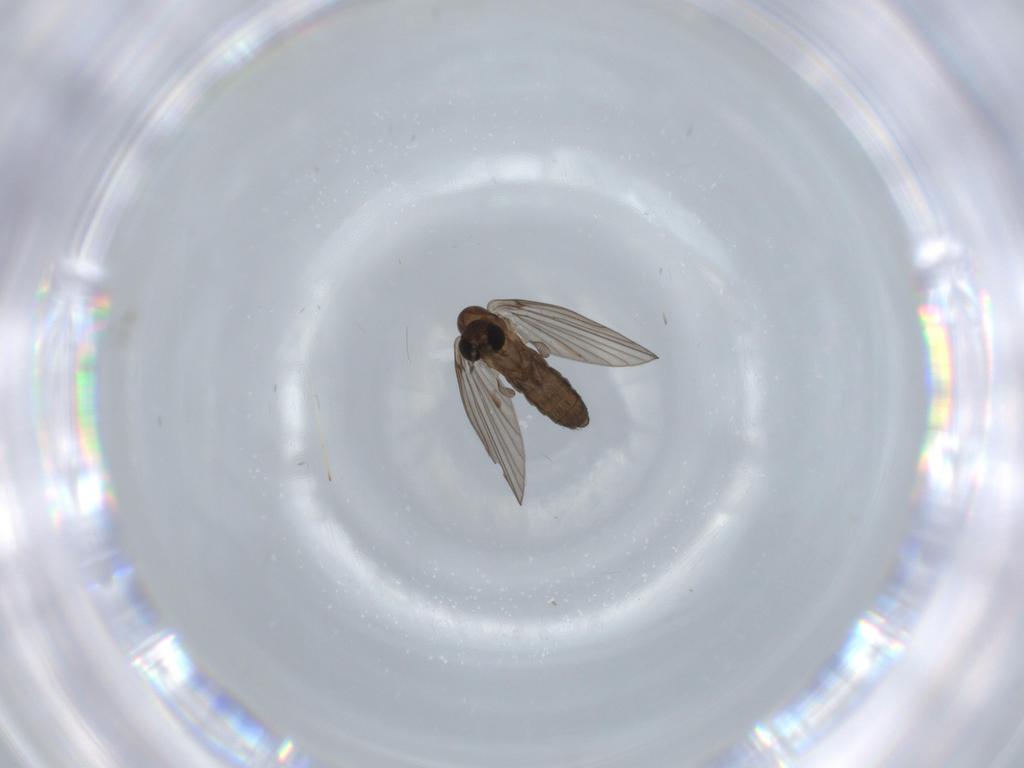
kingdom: Animalia
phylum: Arthropoda
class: Insecta
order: Diptera
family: Psychodidae
